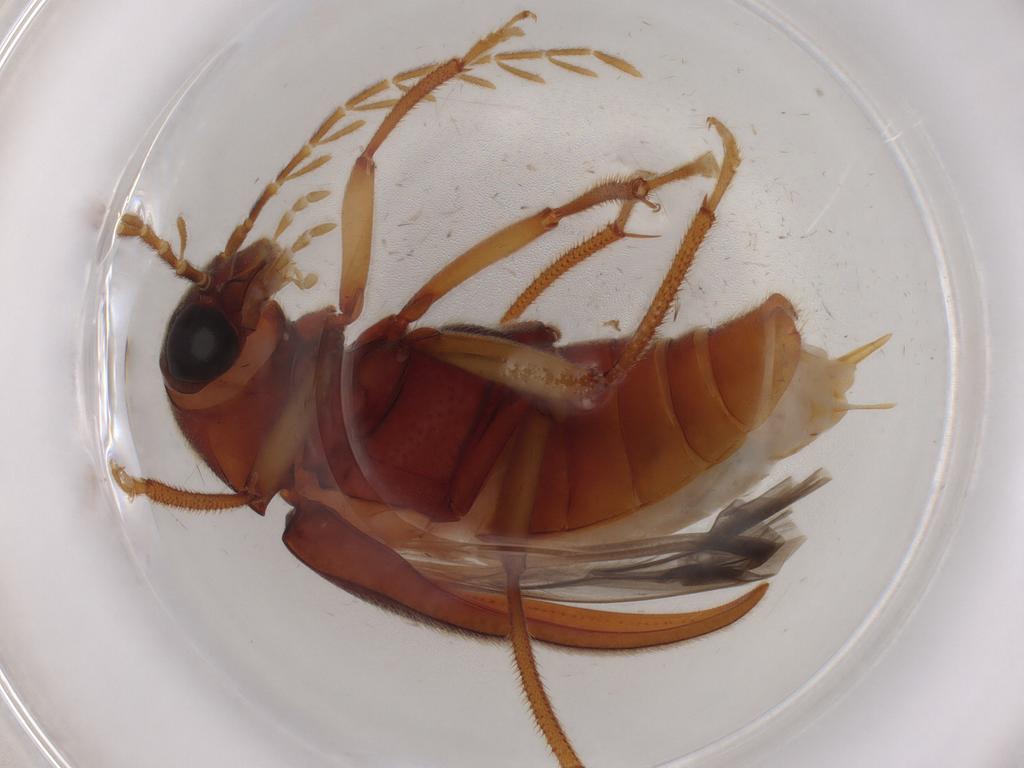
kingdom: Animalia
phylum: Arthropoda
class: Insecta
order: Coleoptera
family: Ptilodactylidae
